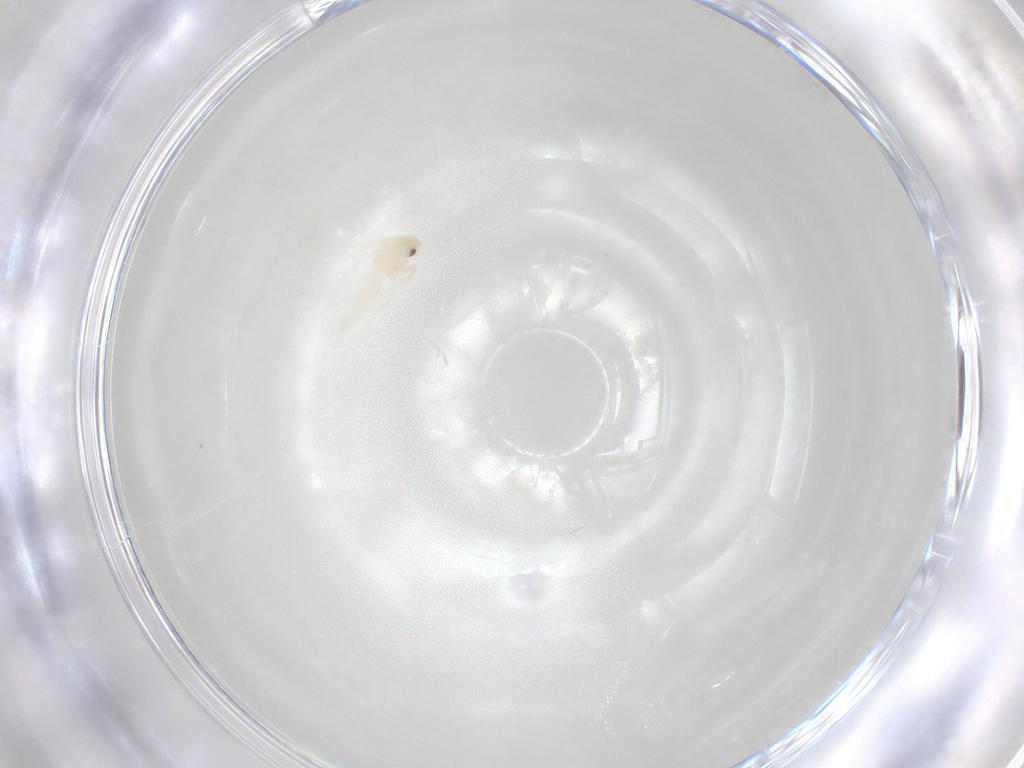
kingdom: Animalia
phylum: Arthropoda
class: Insecta
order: Hemiptera
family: Aleyrodidae
